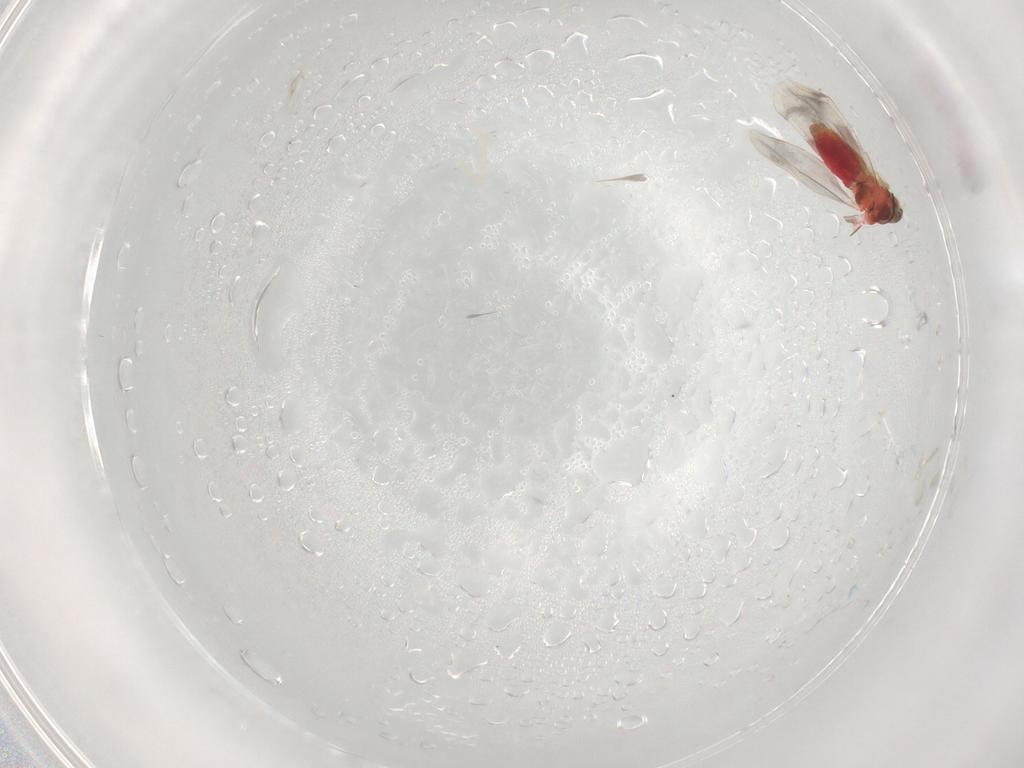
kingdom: Animalia
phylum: Arthropoda
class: Insecta
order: Hemiptera
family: Aleyrodidae
